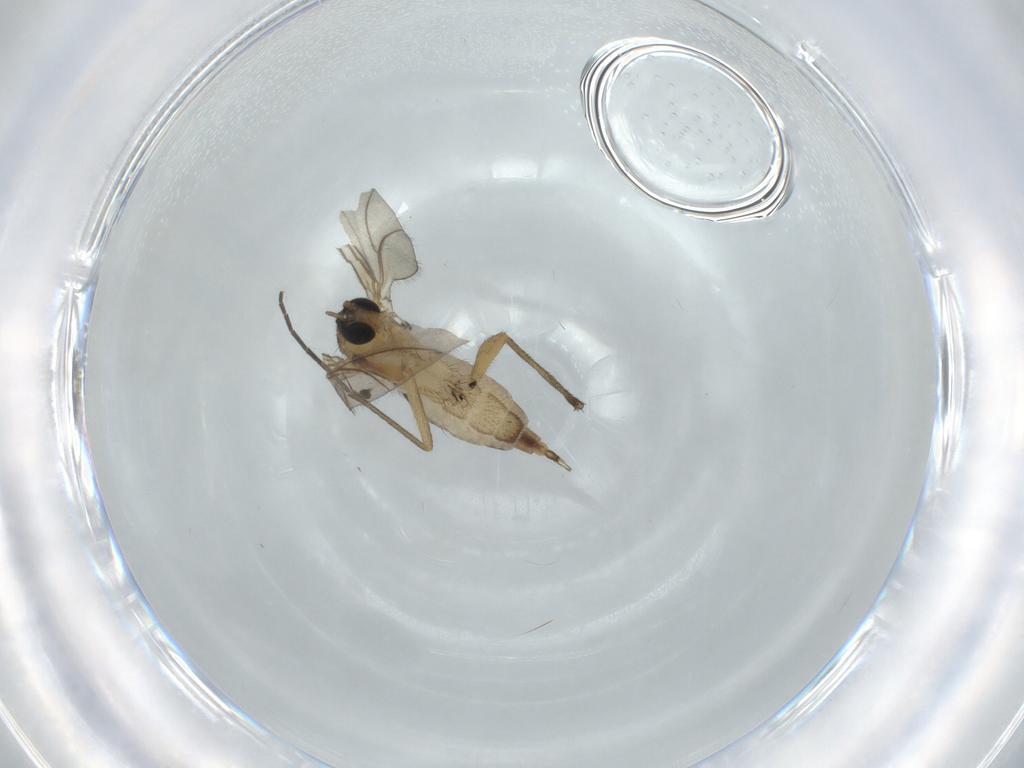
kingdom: Animalia
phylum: Arthropoda
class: Insecta
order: Diptera
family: Sciaridae
